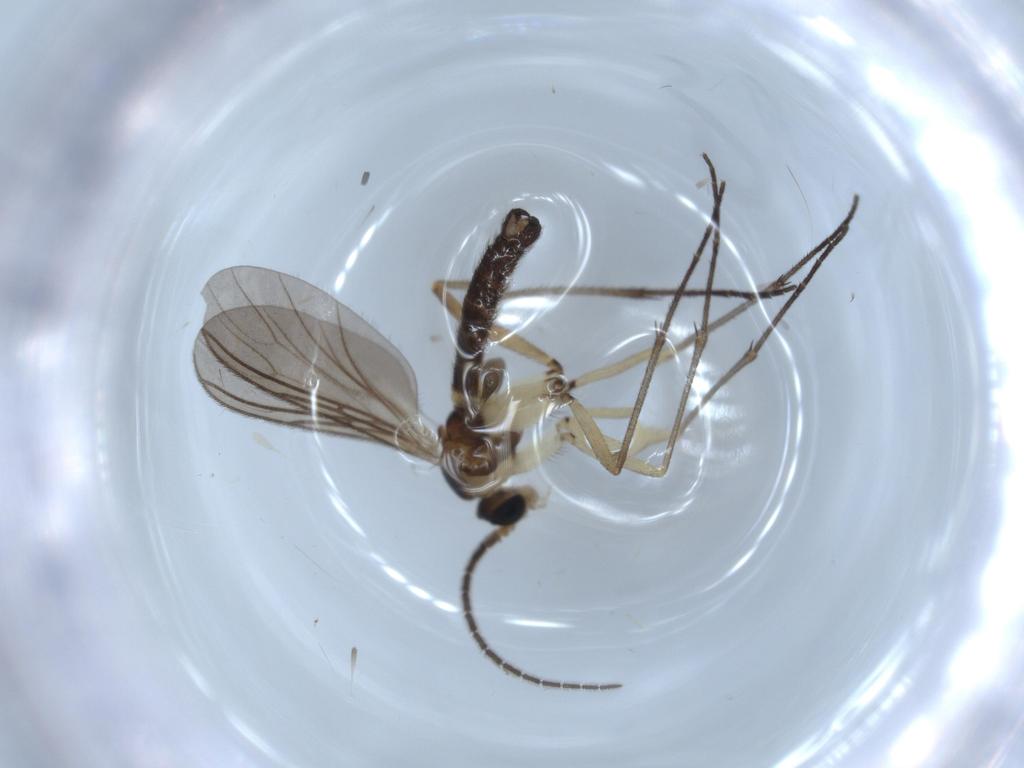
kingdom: Animalia
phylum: Arthropoda
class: Insecta
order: Diptera
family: Sciaridae
